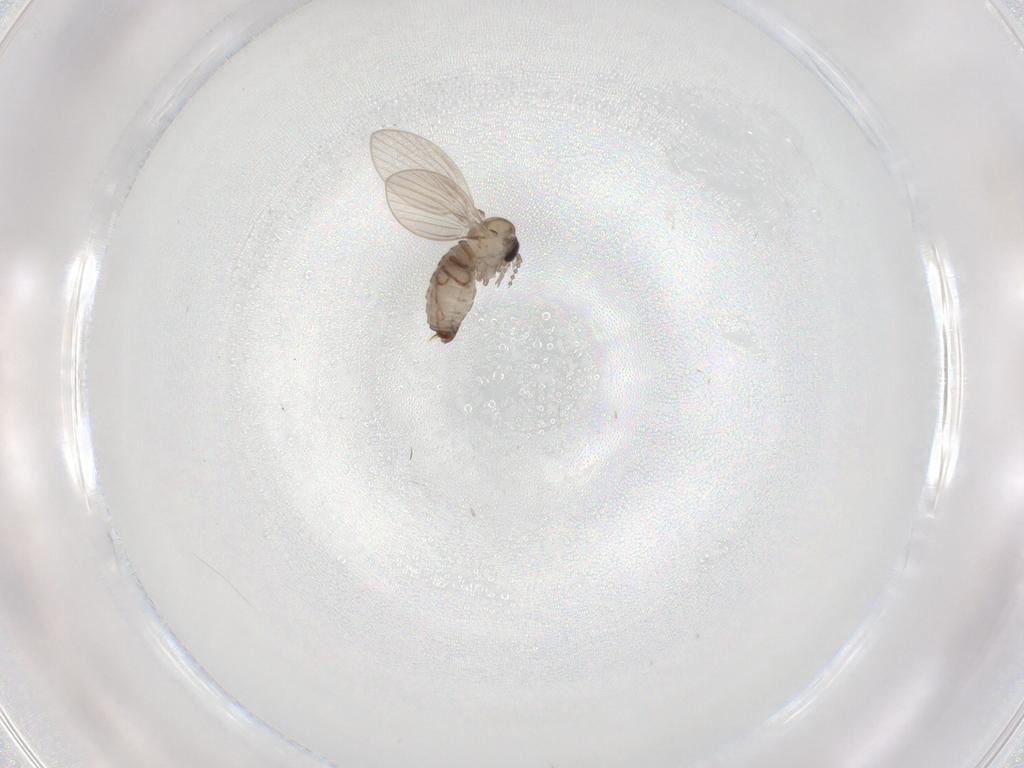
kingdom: Animalia
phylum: Arthropoda
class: Insecta
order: Diptera
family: Psychodidae
